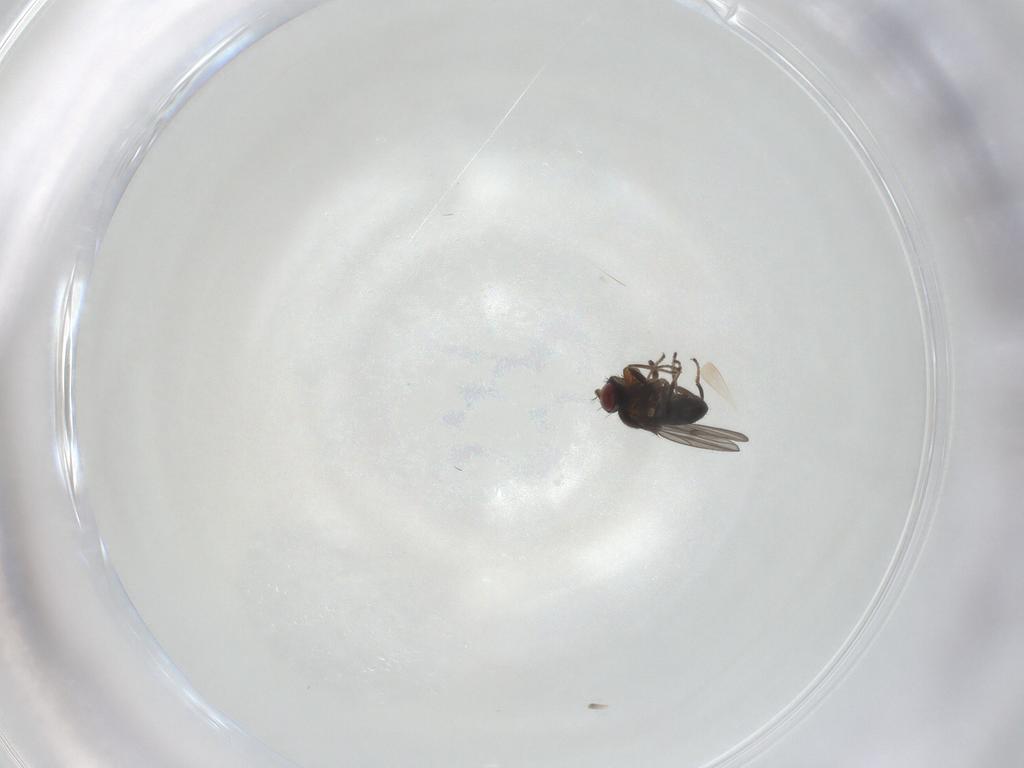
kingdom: Animalia
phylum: Arthropoda
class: Insecta
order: Diptera
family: Ephydridae
